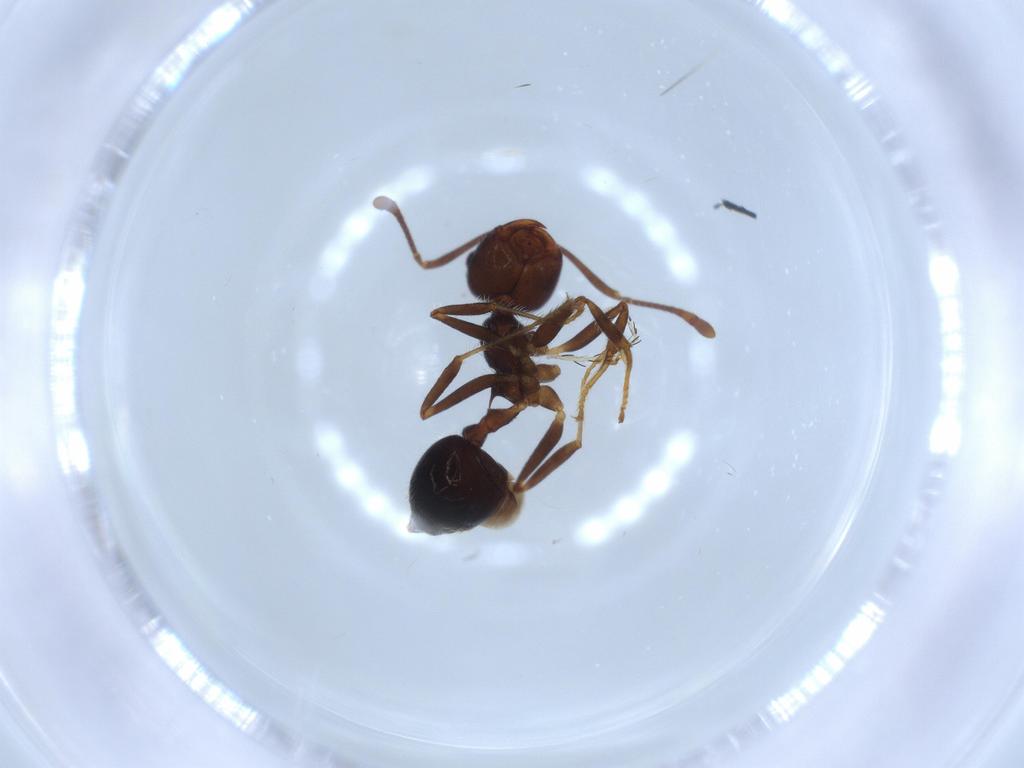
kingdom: Animalia
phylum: Arthropoda
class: Insecta
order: Hymenoptera
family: Formicidae
